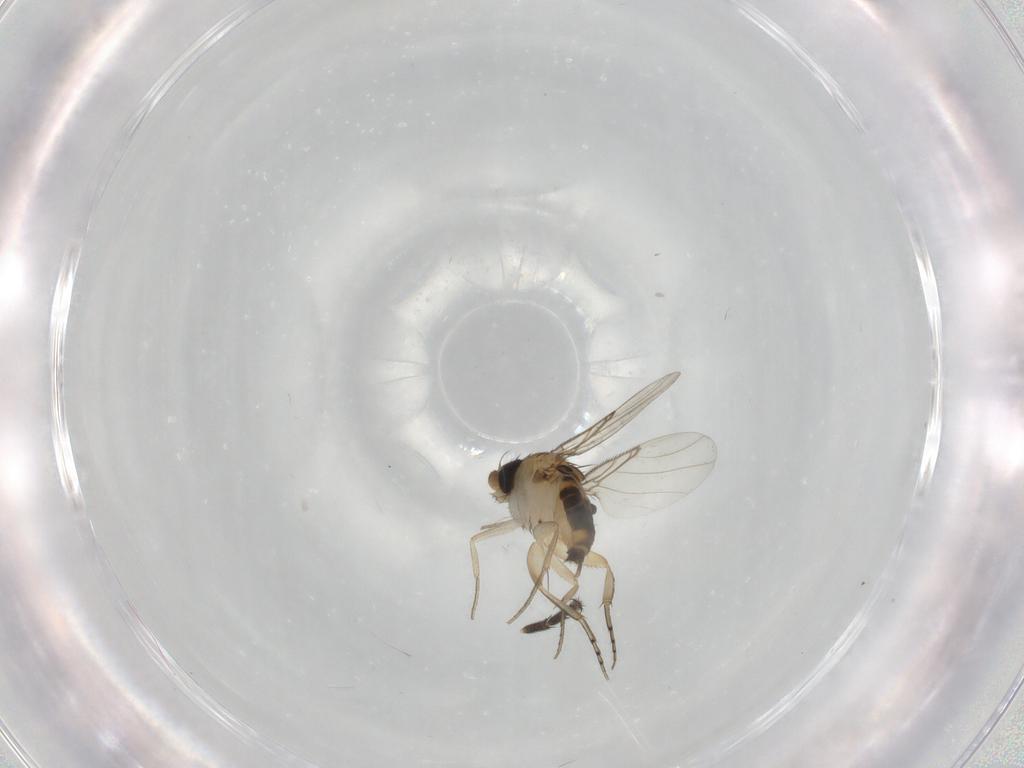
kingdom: Animalia
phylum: Arthropoda
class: Insecta
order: Diptera
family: Phoridae
